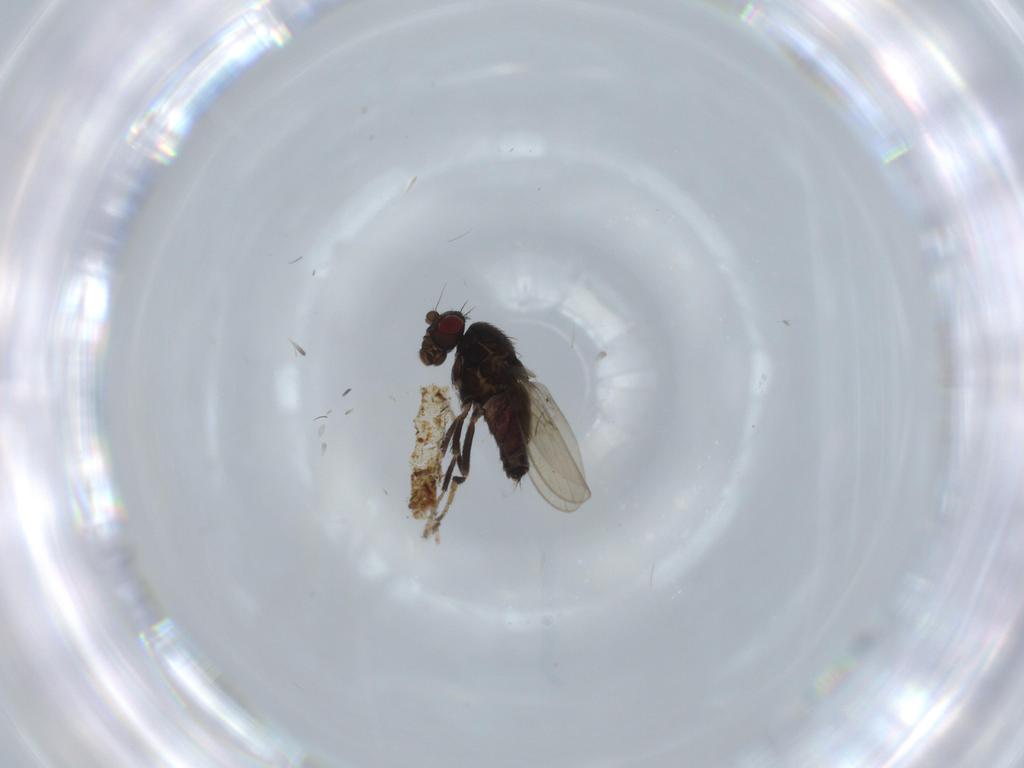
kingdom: Animalia
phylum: Arthropoda
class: Insecta
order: Diptera
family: Sphaeroceridae
